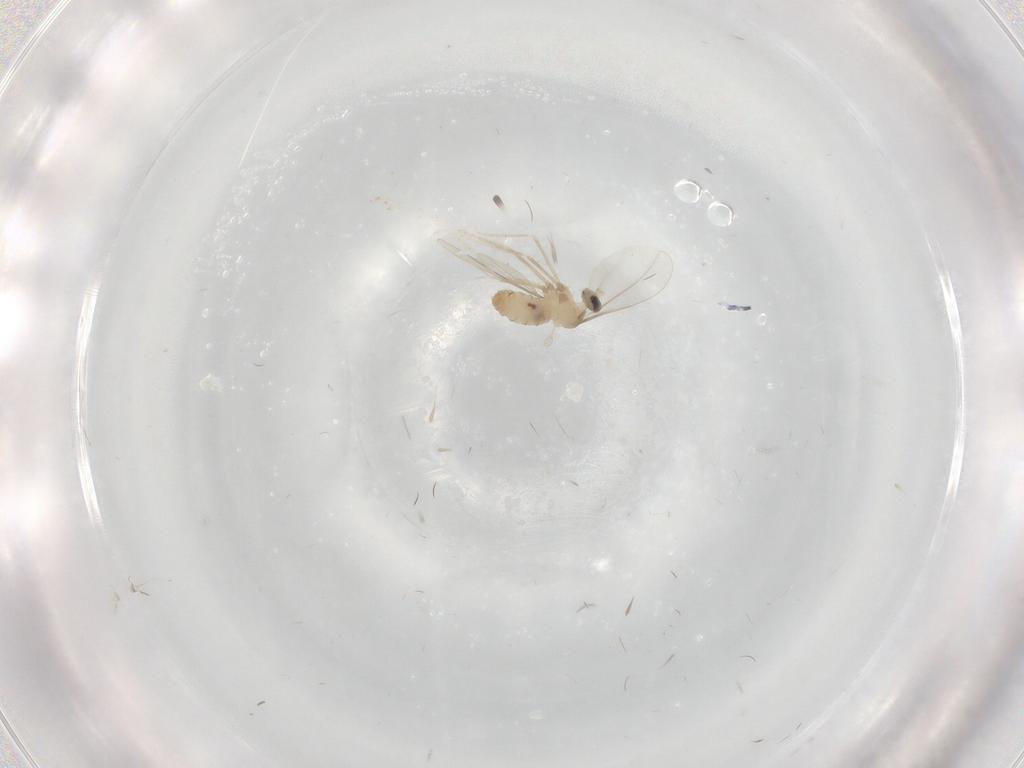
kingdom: Animalia
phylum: Arthropoda
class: Insecta
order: Diptera
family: Cecidomyiidae
